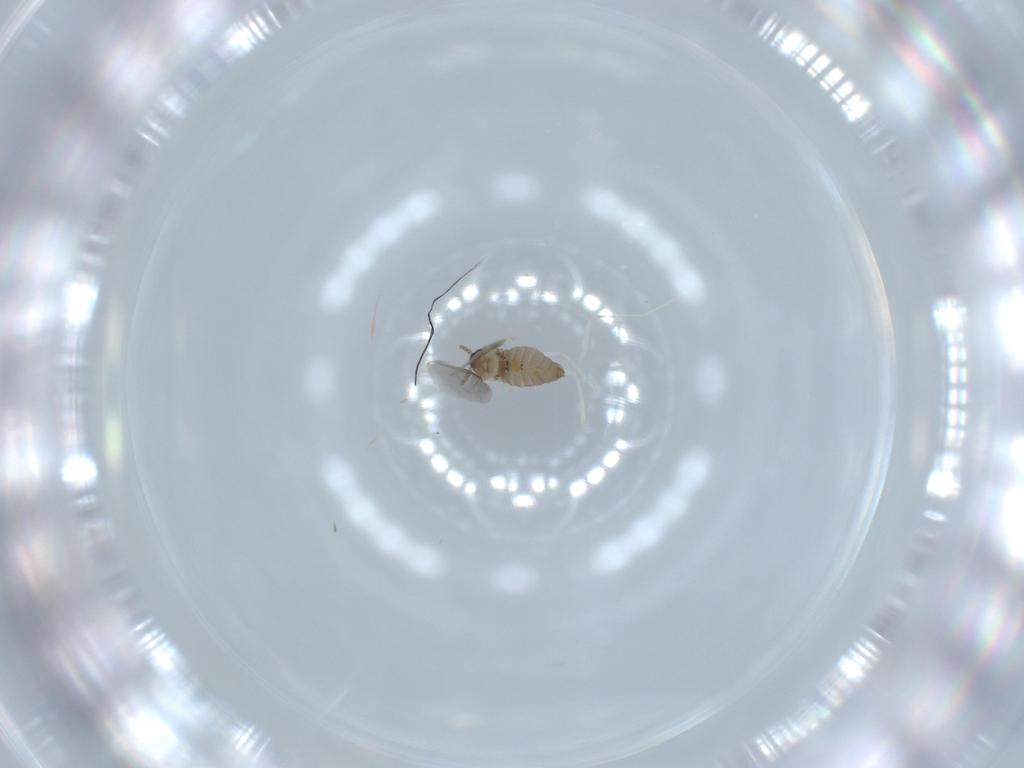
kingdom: Animalia
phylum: Arthropoda
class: Insecta
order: Diptera
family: Cecidomyiidae
